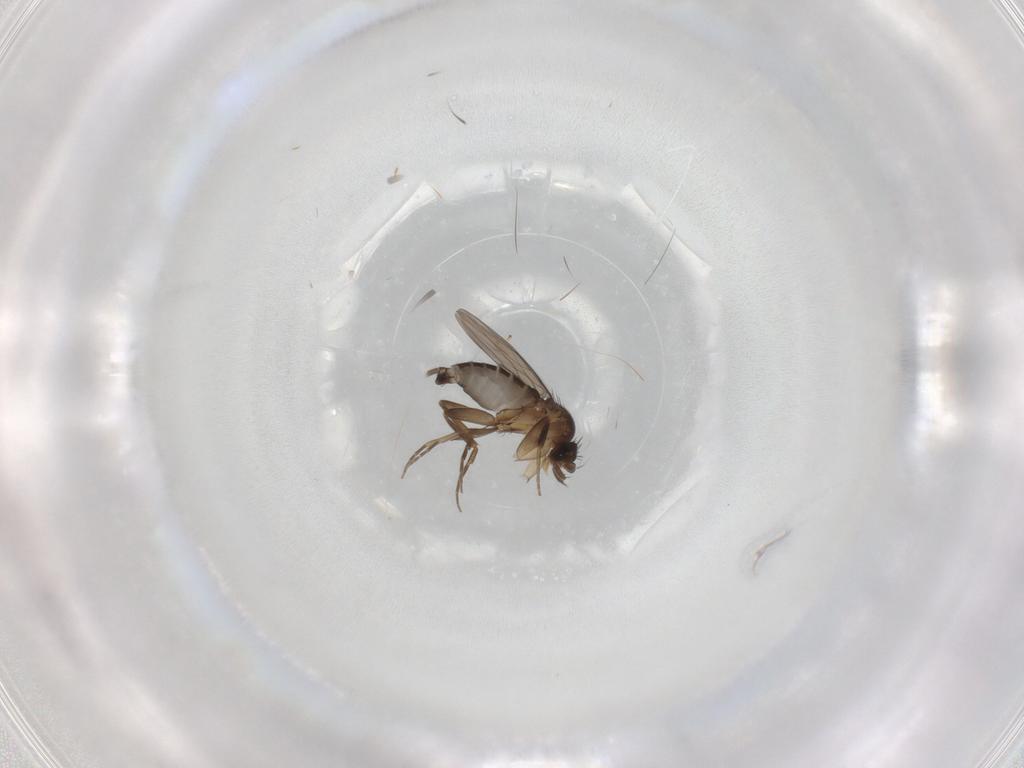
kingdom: Animalia
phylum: Arthropoda
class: Insecta
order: Diptera
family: Phoridae
